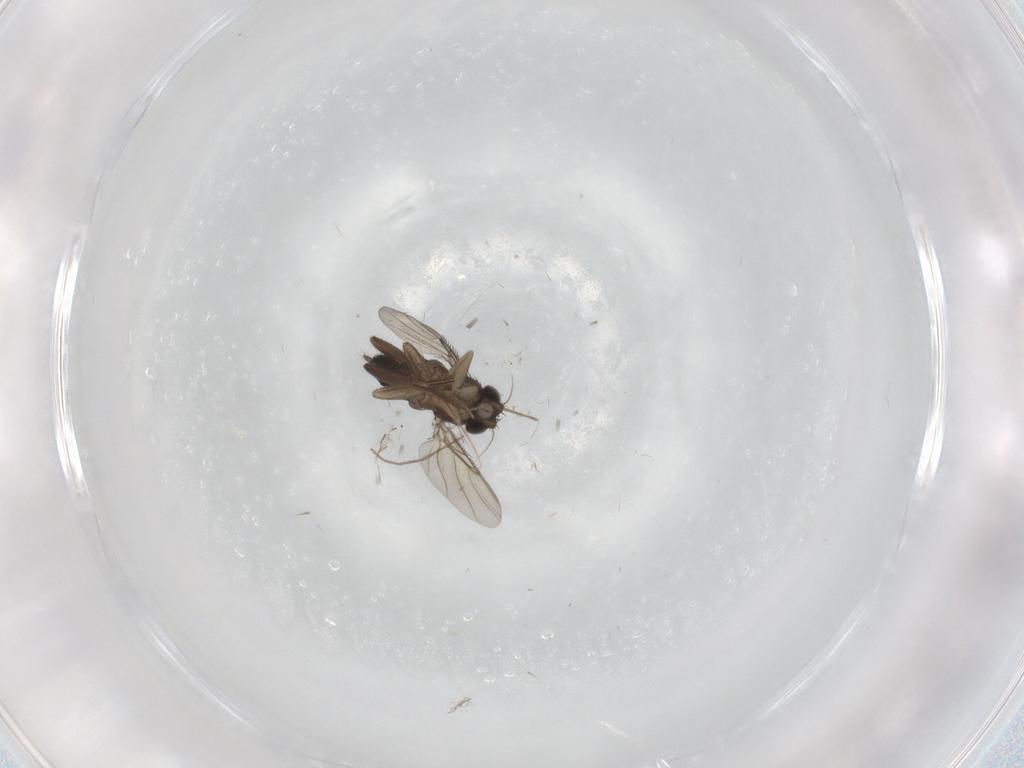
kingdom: Animalia
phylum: Arthropoda
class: Insecta
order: Diptera
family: Phoridae
